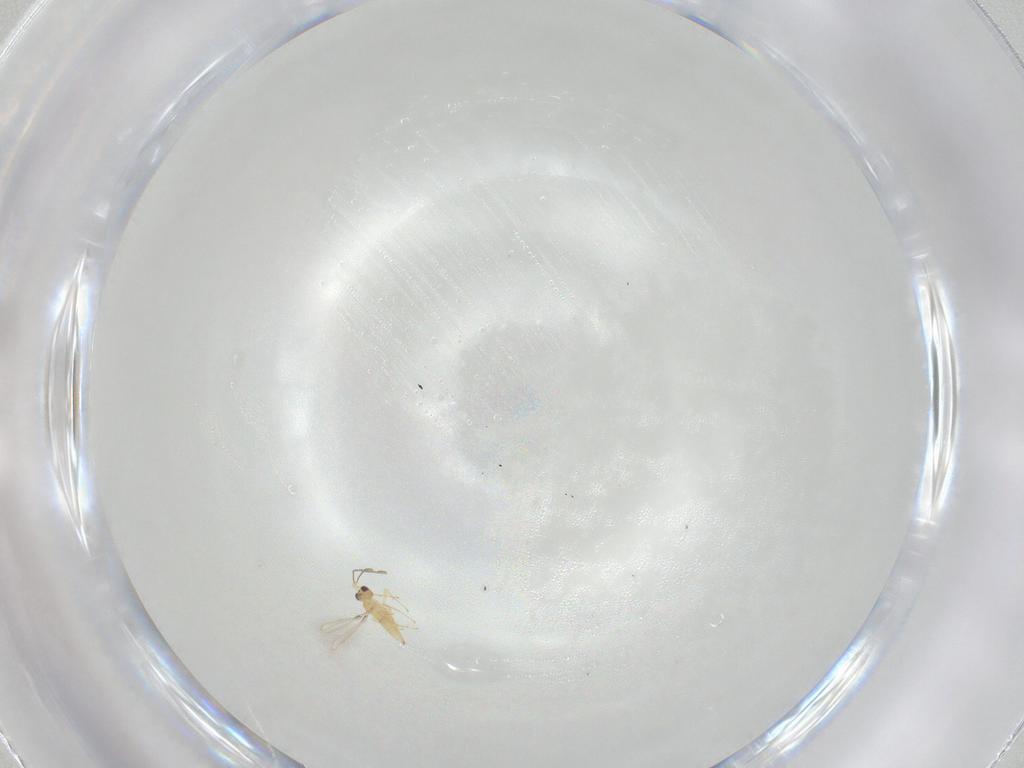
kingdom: Animalia
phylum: Arthropoda
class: Insecta
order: Hymenoptera
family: Mymaridae
